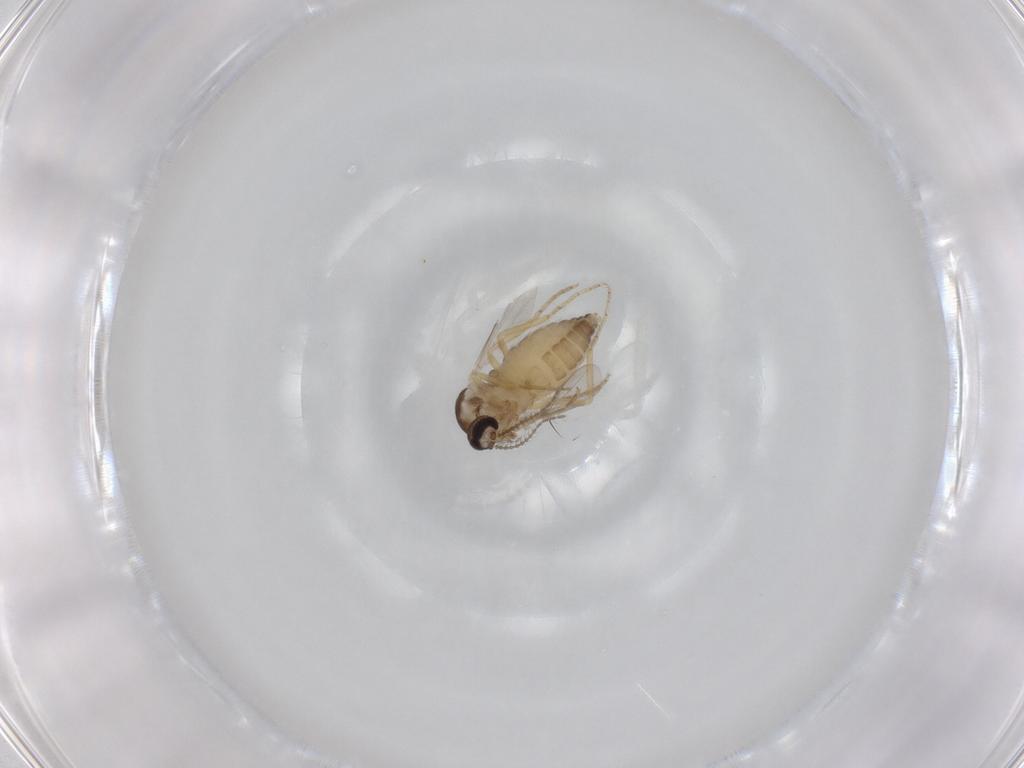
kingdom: Animalia
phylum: Arthropoda
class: Insecta
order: Diptera
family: Ceratopogonidae
